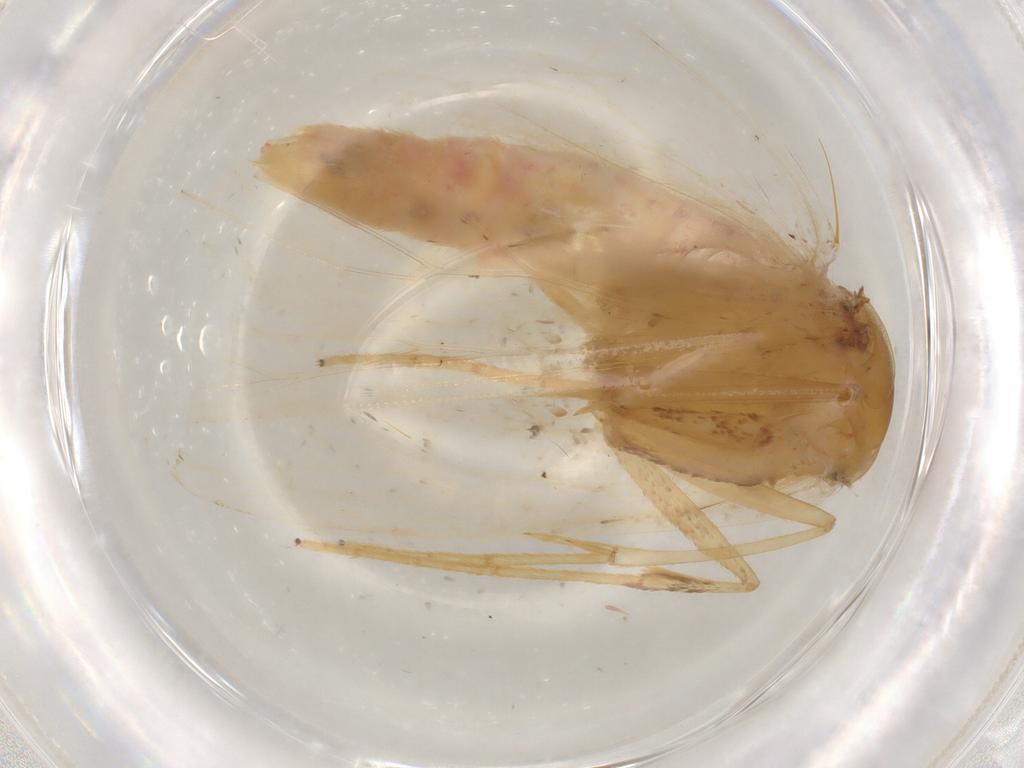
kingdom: Animalia
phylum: Arthropoda
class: Insecta
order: Lepidoptera
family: Geometridae
